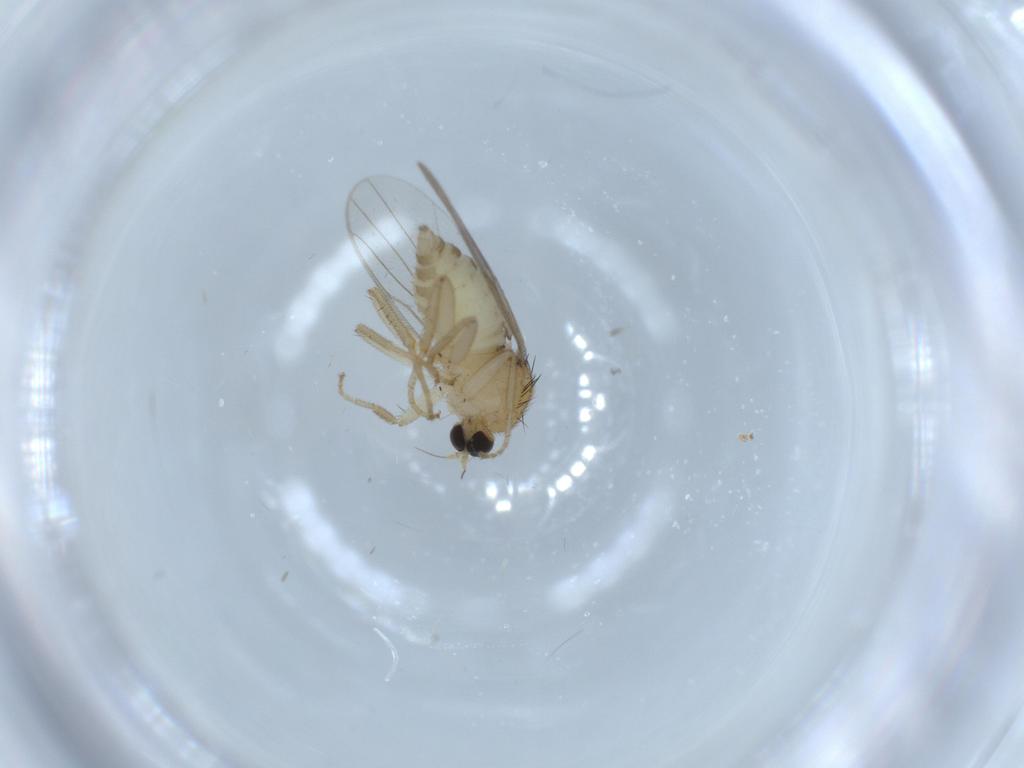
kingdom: Animalia
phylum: Arthropoda
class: Insecta
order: Diptera
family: Hybotidae
